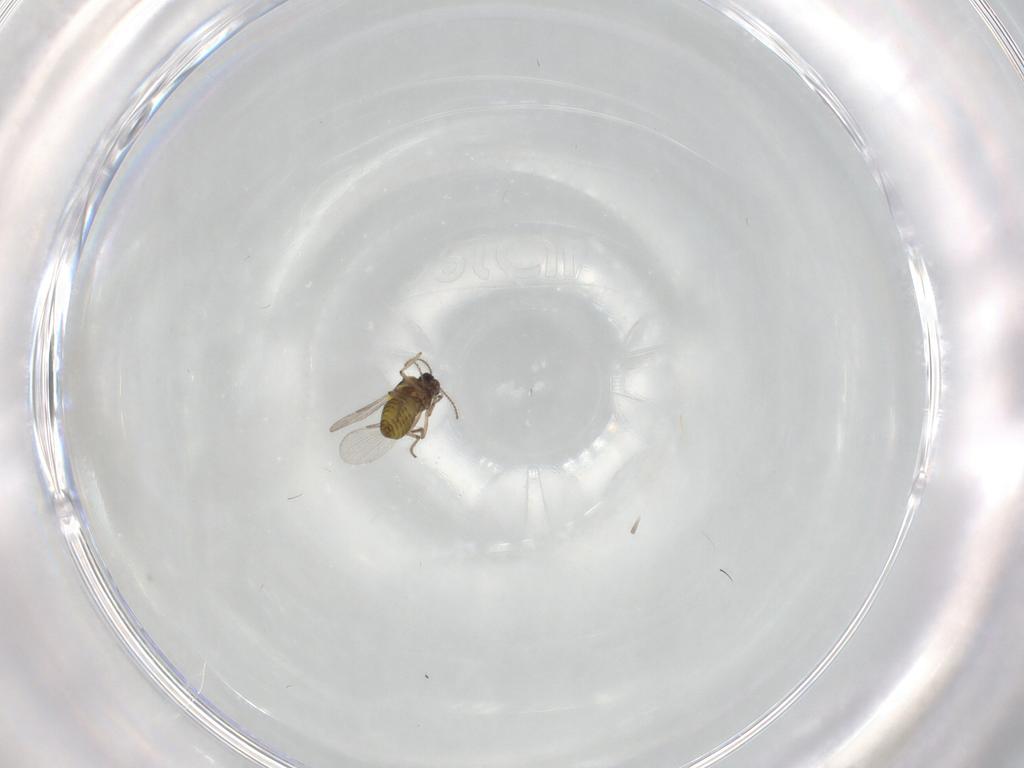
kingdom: Animalia
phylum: Arthropoda
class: Insecta
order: Diptera
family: Ceratopogonidae
